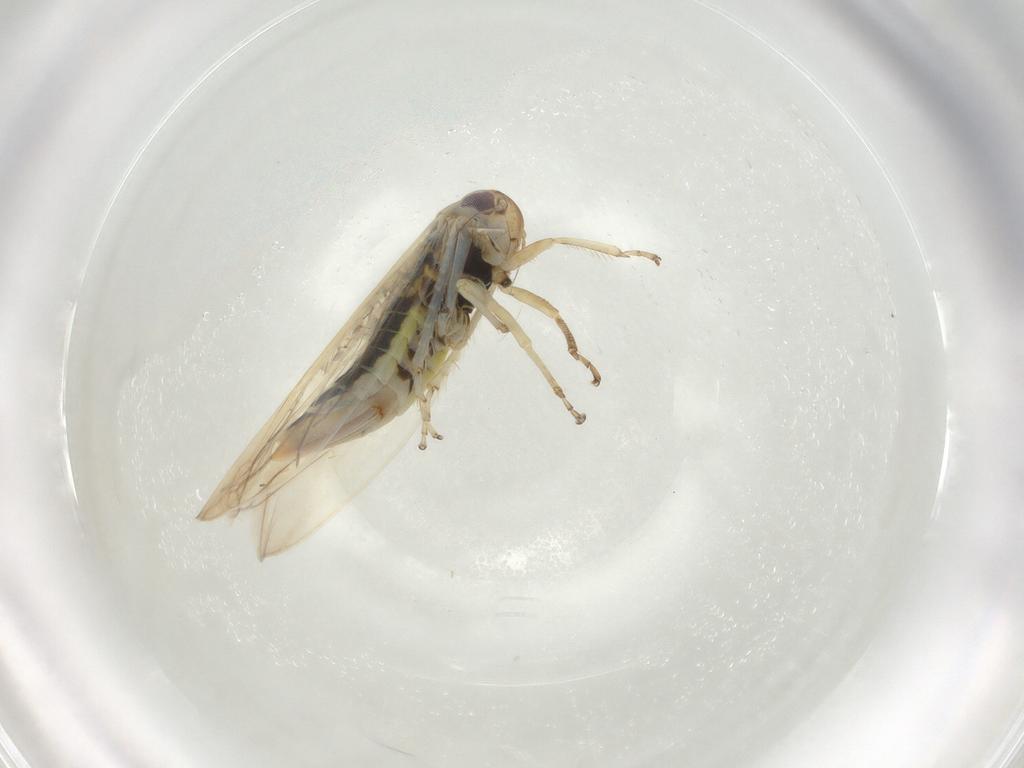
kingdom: Animalia
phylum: Arthropoda
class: Insecta
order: Hemiptera
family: Cicadellidae
